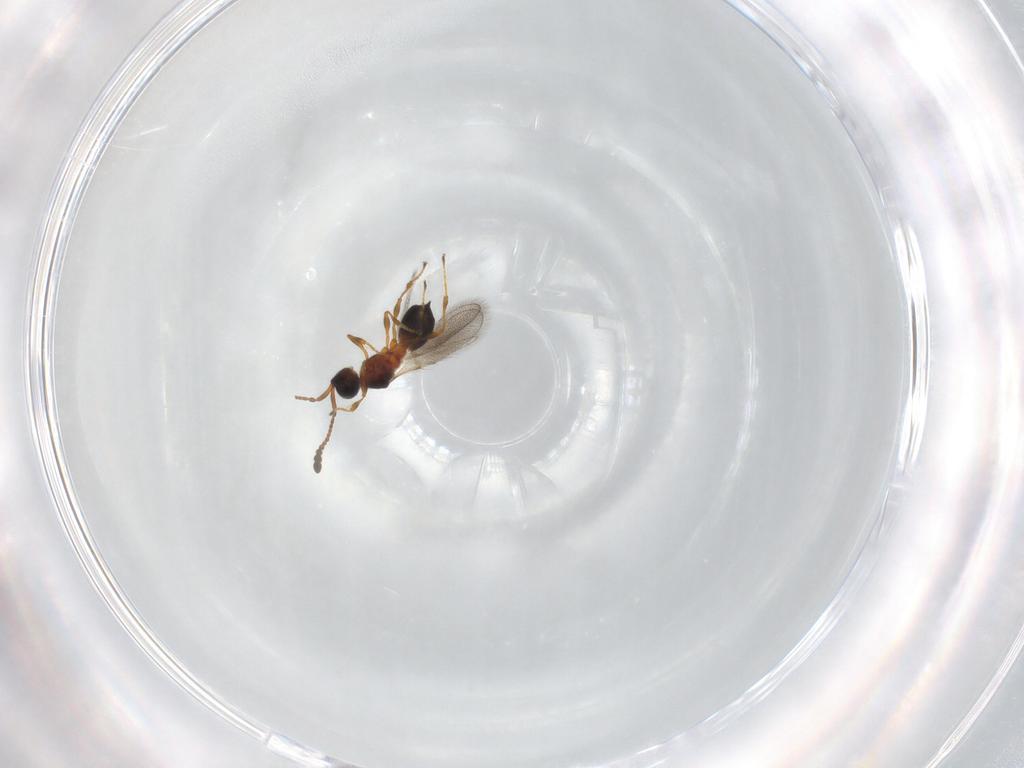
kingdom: Animalia
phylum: Arthropoda
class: Insecta
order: Hymenoptera
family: Diapriidae
